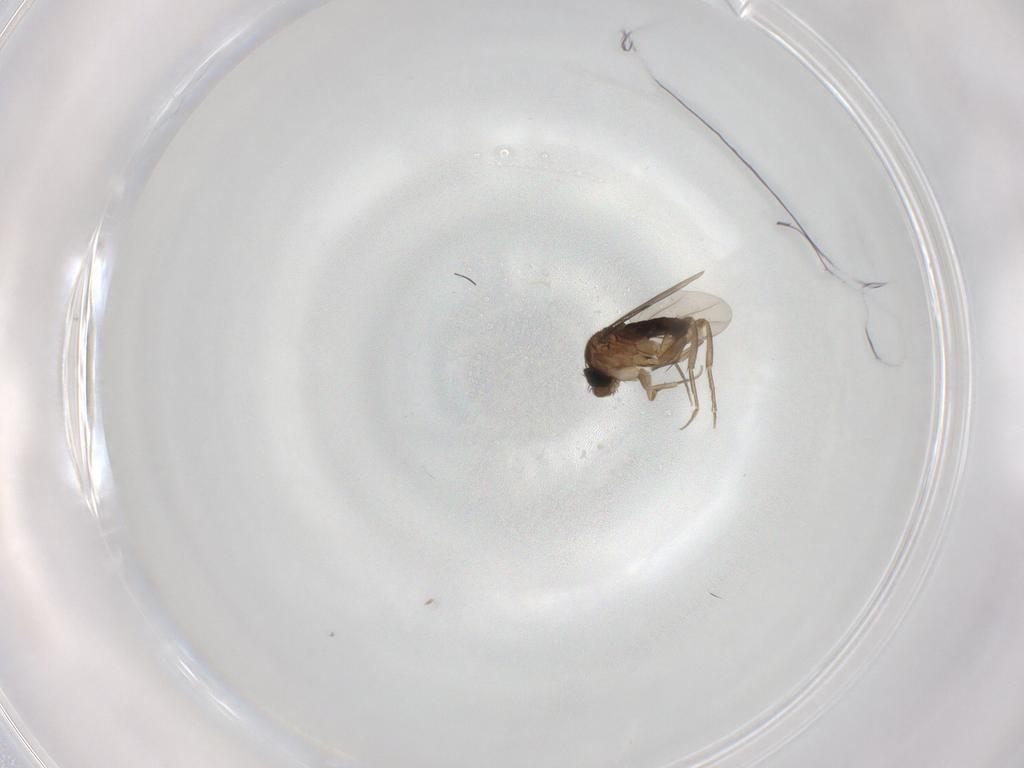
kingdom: Animalia
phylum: Arthropoda
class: Insecta
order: Diptera
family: Phoridae
